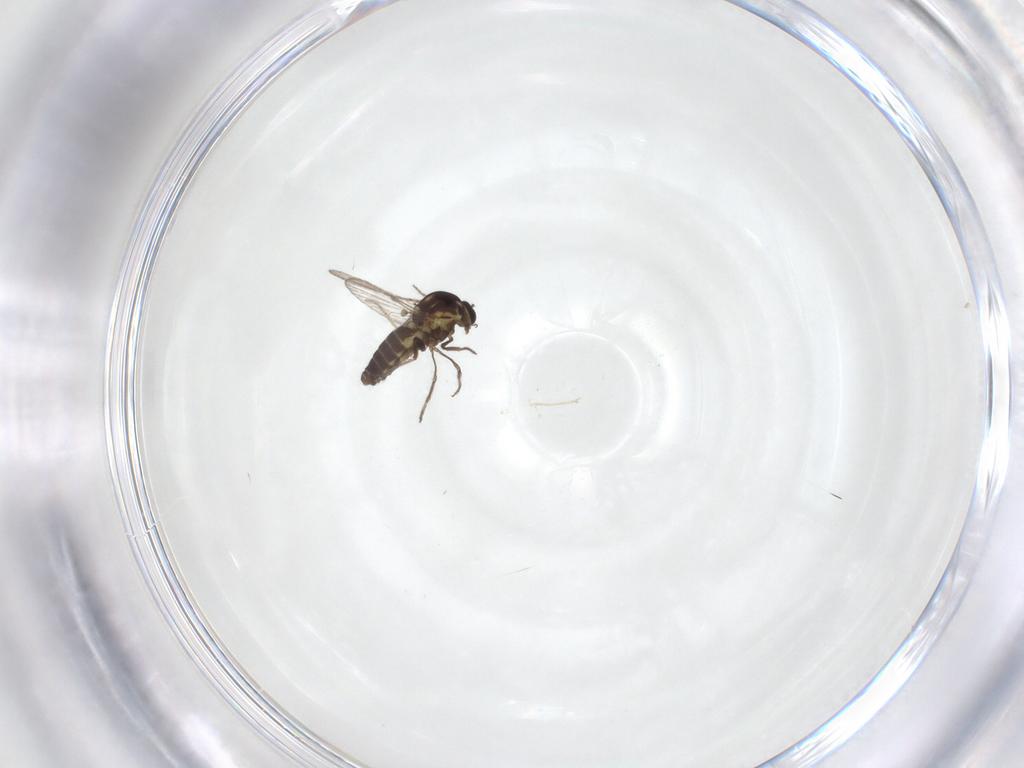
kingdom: Animalia
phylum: Arthropoda
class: Insecta
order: Diptera
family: Ceratopogonidae
